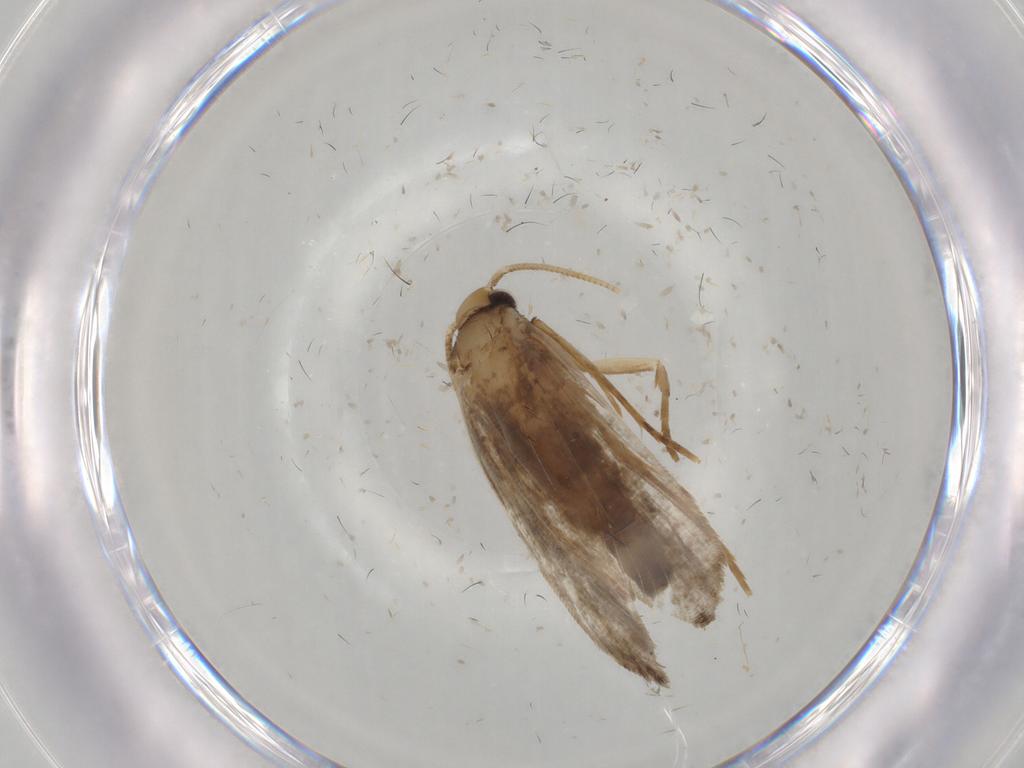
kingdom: Animalia
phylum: Arthropoda
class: Insecta
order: Lepidoptera
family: Tineidae
